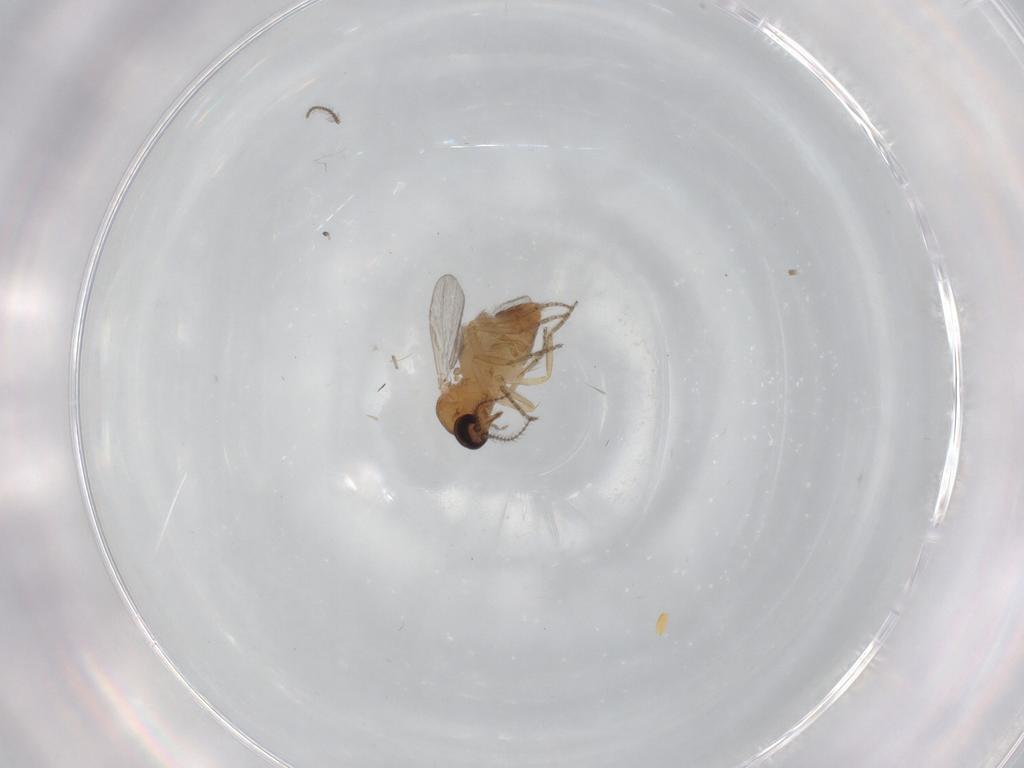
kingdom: Animalia
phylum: Arthropoda
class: Insecta
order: Diptera
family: Ceratopogonidae
